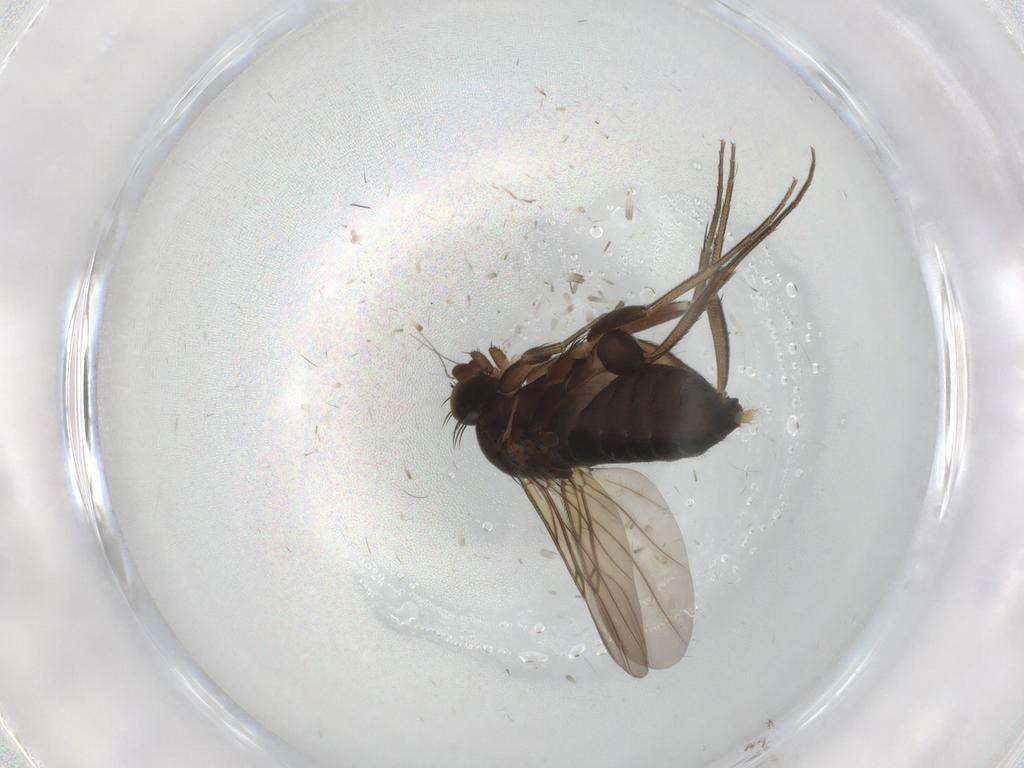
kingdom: Animalia
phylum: Arthropoda
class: Insecta
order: Diptera
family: Phoridae
